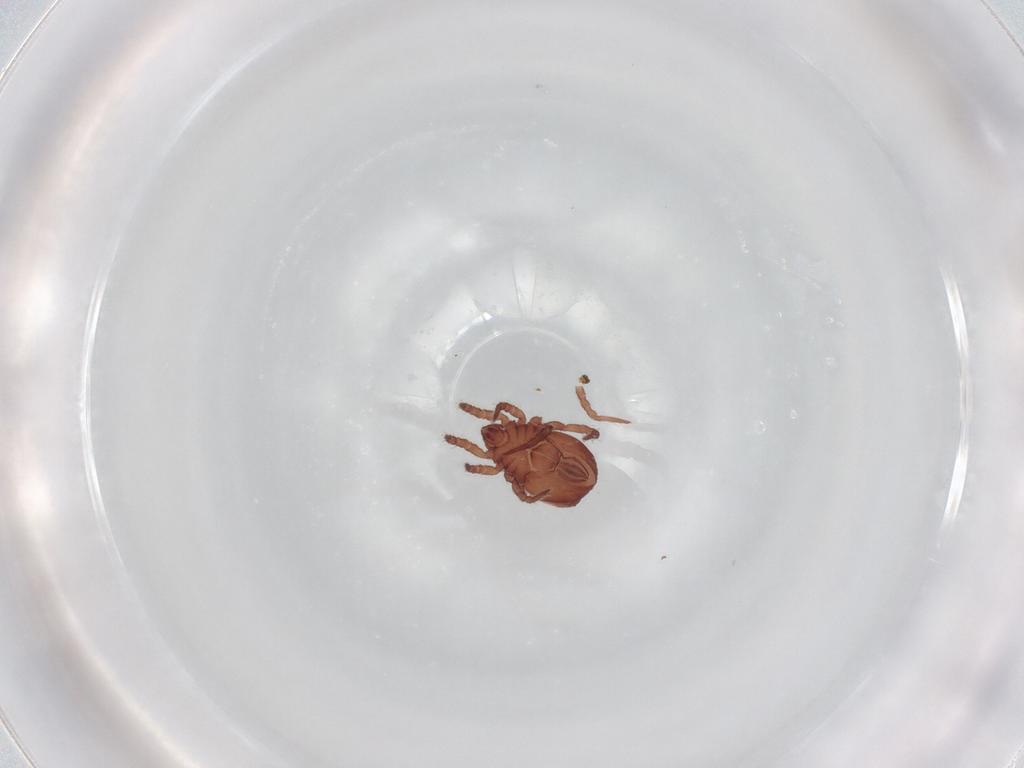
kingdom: Animalia
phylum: Arthropoda
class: Arachnida
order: Sarcoptiformes
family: Nothridae
